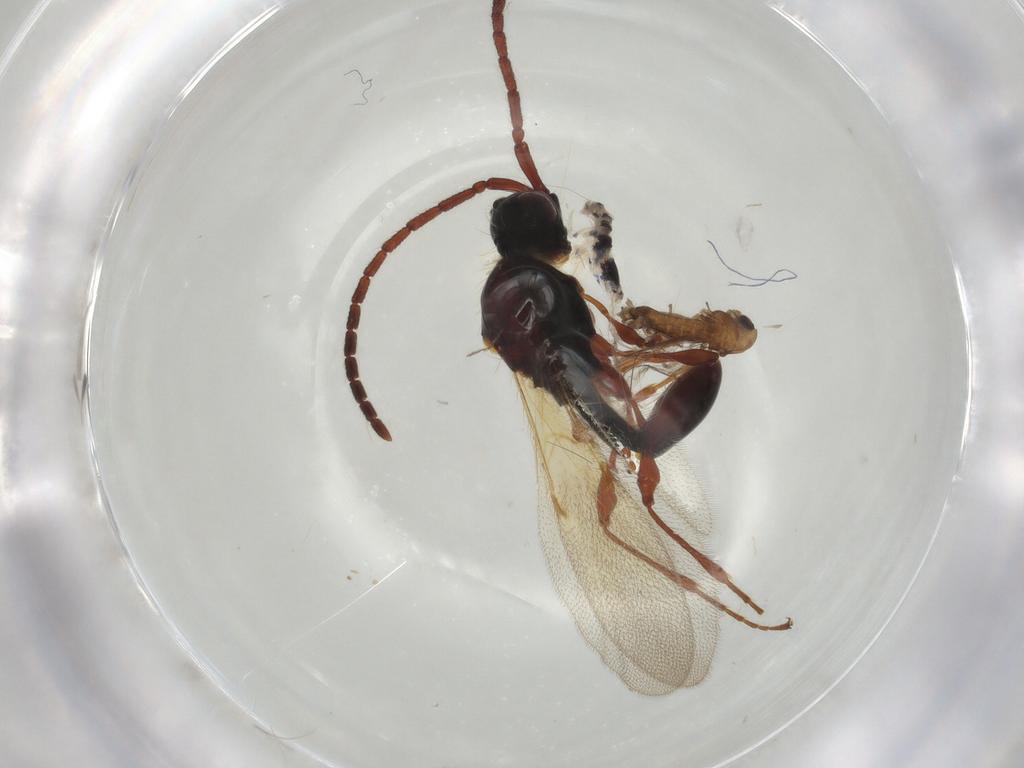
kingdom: Animalia
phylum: Arthropoda
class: Insecta
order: Diptera
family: Chironomidae
